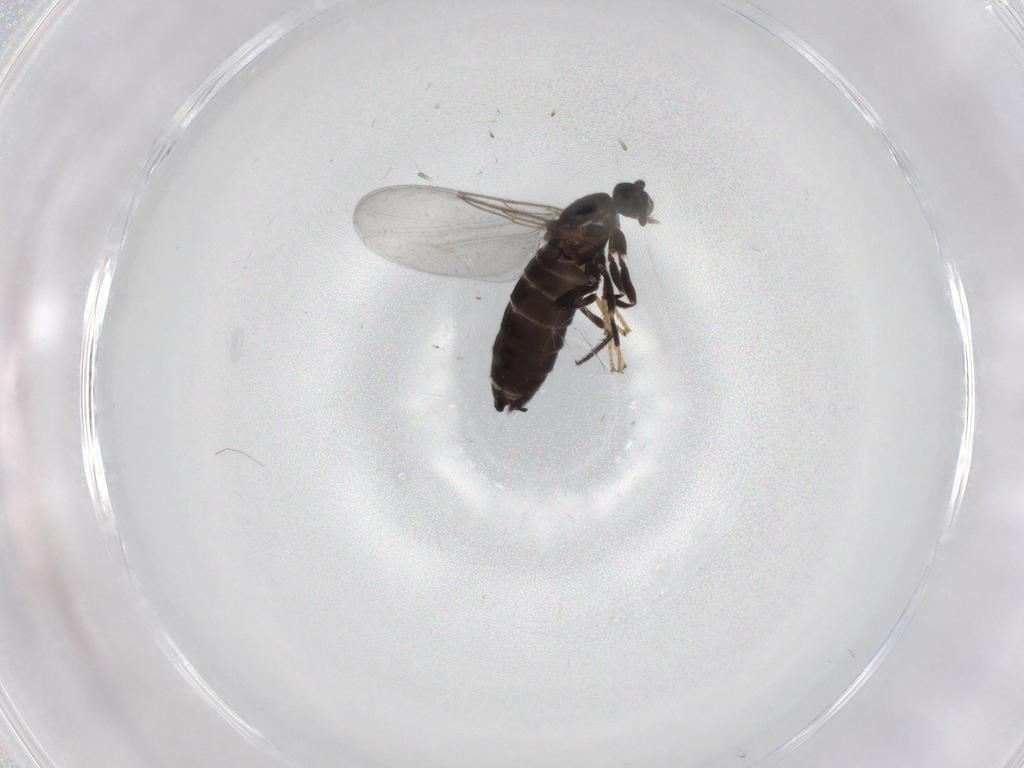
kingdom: Animalia
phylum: Arthropoda
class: Insecta
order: Diptera
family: Scatopsidae
